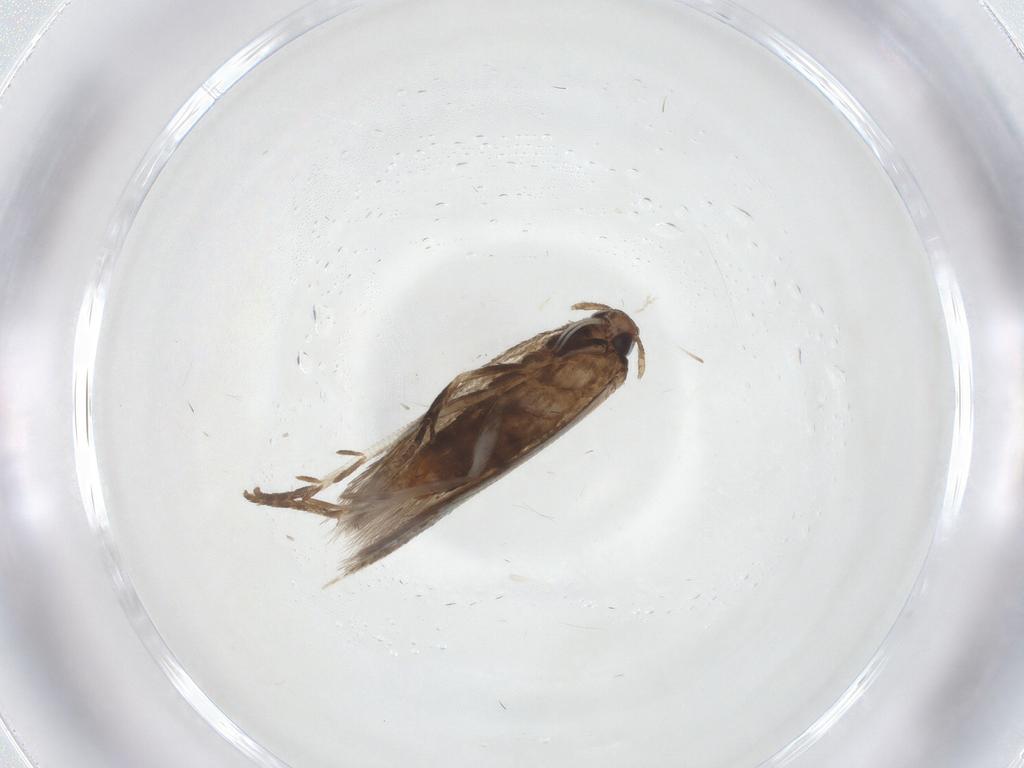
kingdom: Animalia
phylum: Arthropoda
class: Insecta
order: Lepidoptera
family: Gelechiidae
